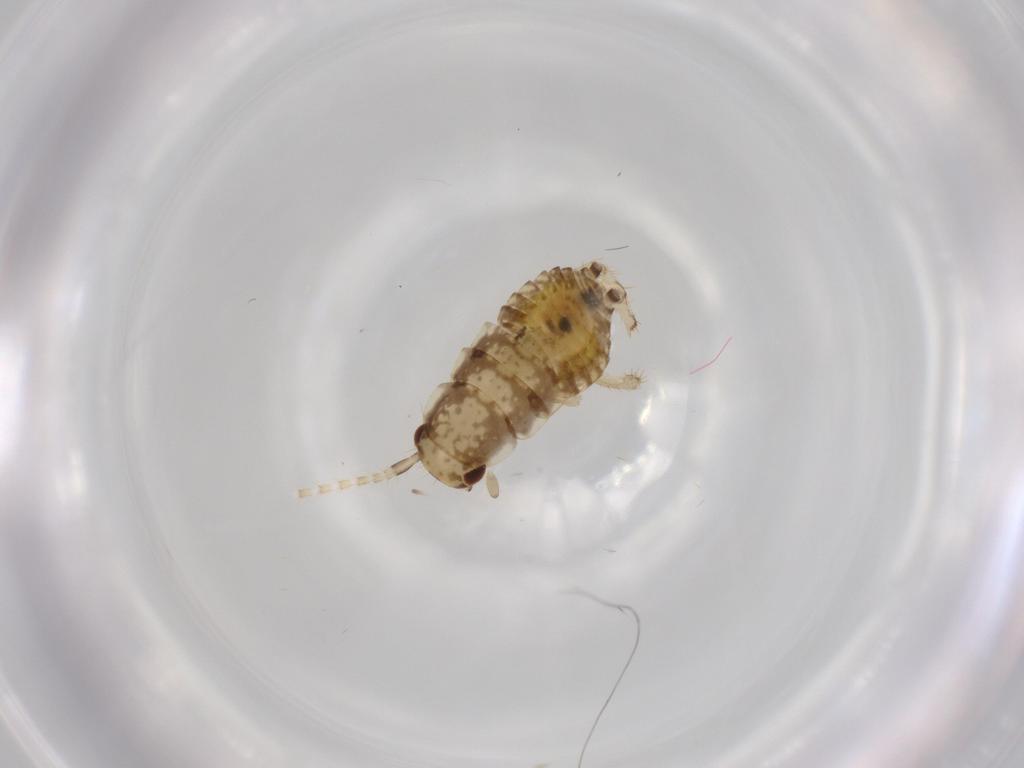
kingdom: Animalia
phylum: Arthropoda
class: Insecta
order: Blattodea
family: Ectobiidae
